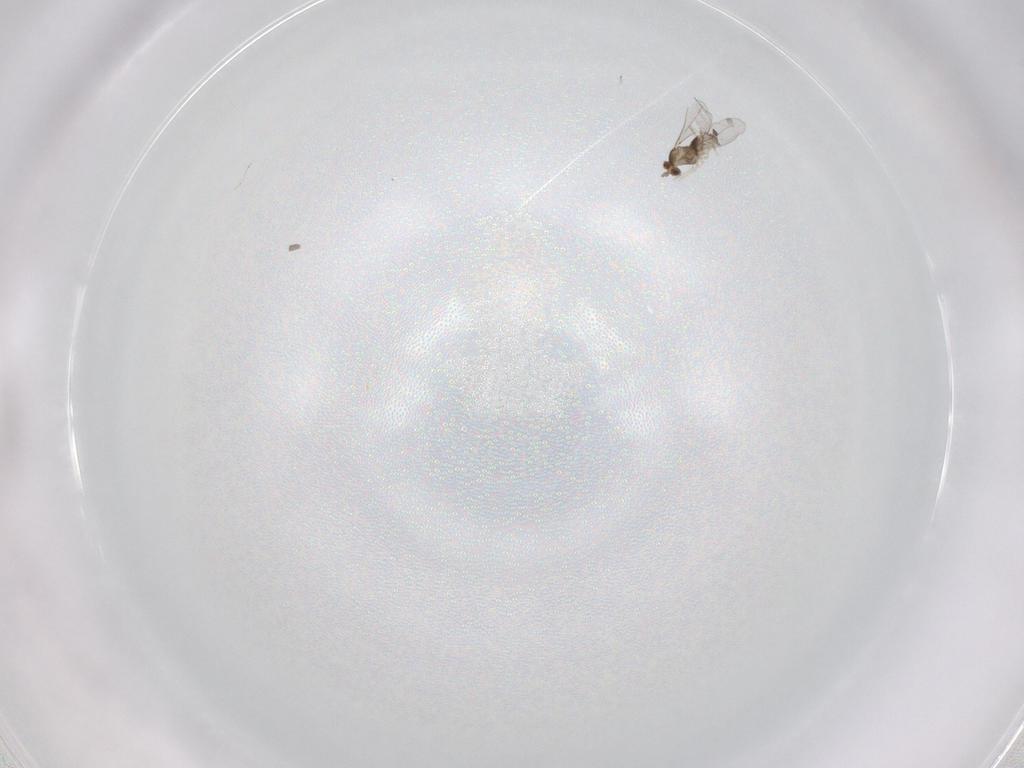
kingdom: Animalia
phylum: Arthropoda
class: Insecta
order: Diptera
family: Cecidomyiidae
